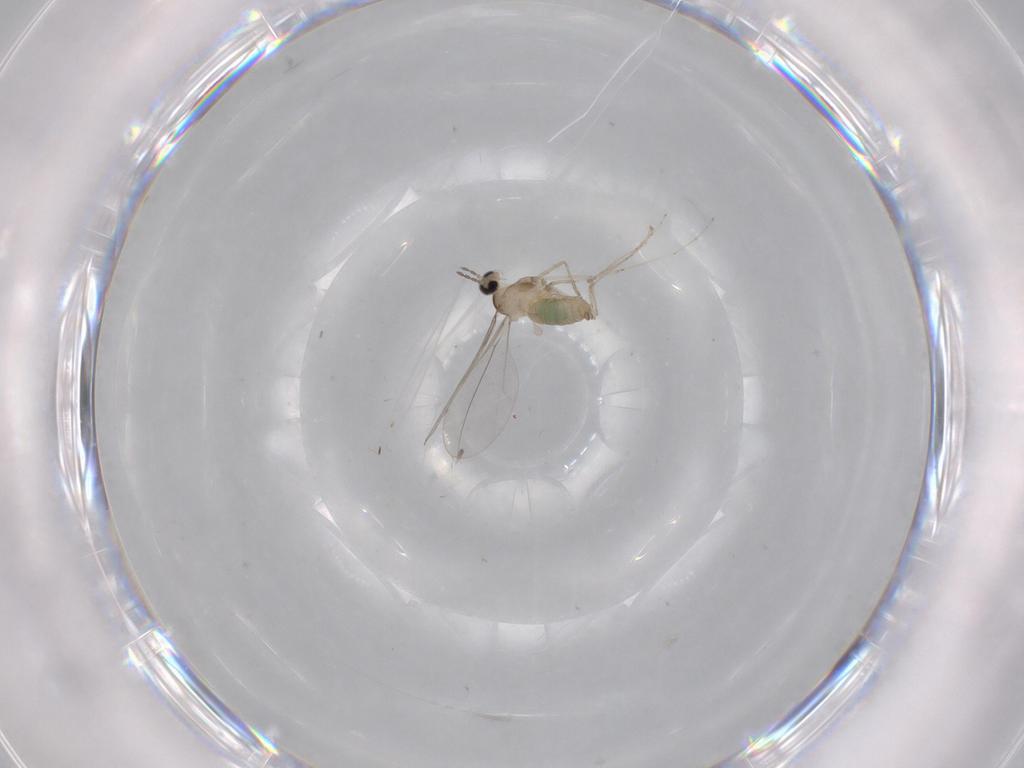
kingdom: Animalia
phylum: Arthropoda
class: Insecta
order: Diptera
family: Cecidomyiidae
